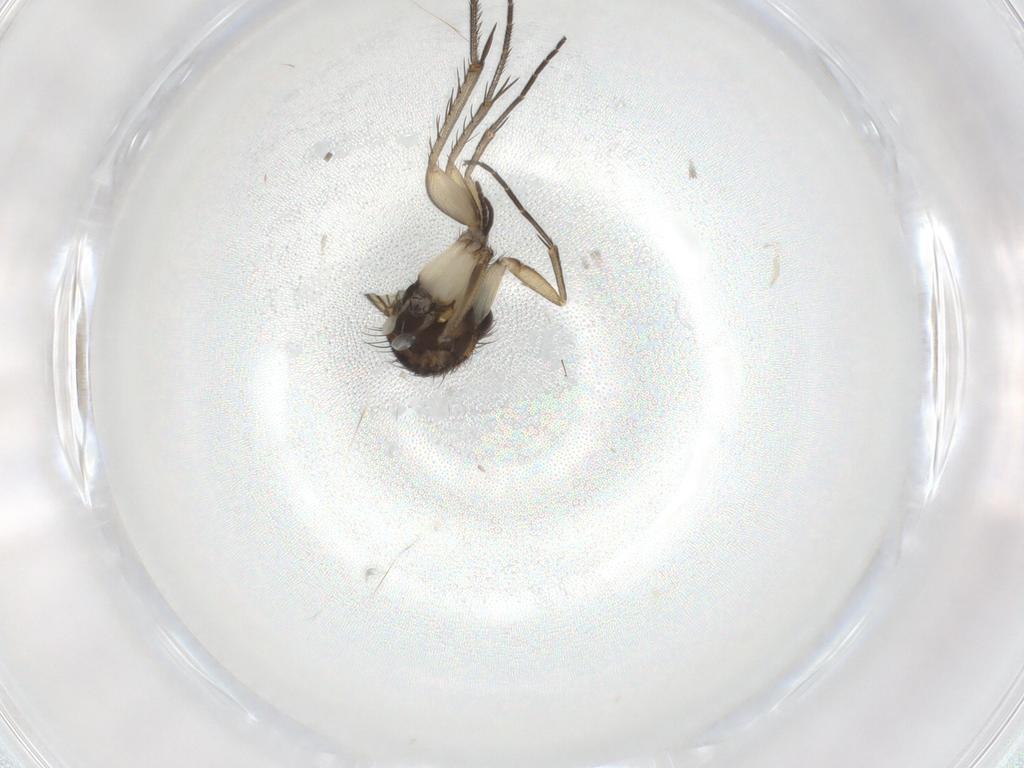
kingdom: Animalia
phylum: Arthropoda
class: Insecta
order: Diptera
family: Mycetophilidae
